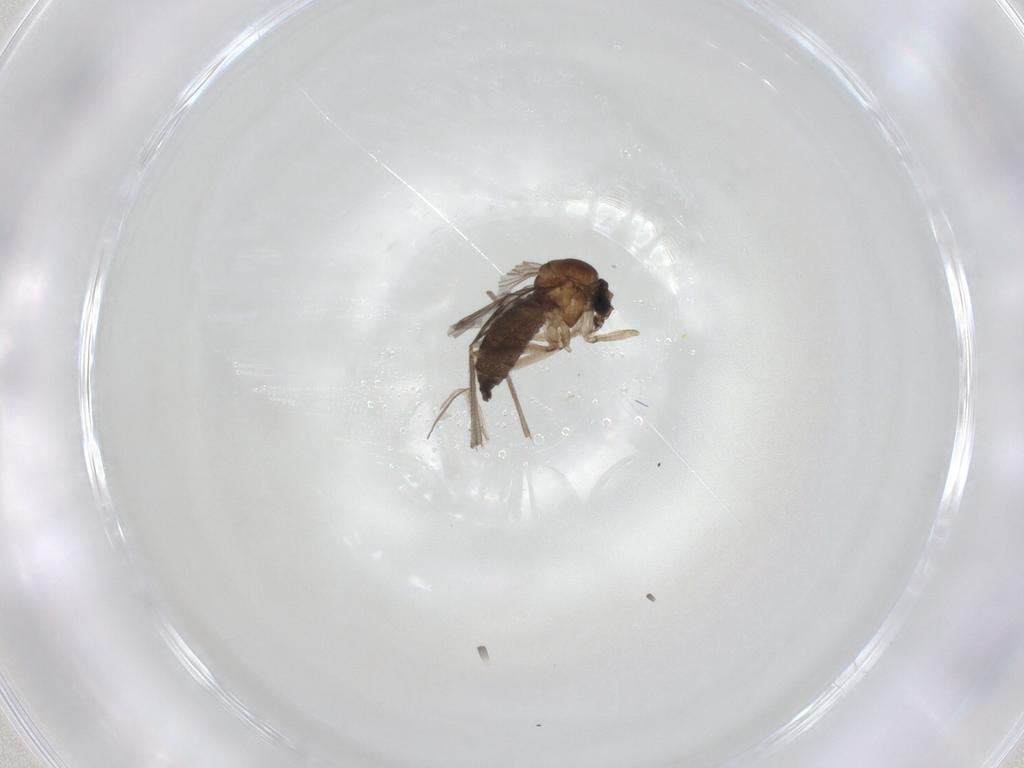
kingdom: Animalia
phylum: Arthropoda
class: Insecta
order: Diptera
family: Sciaridae
